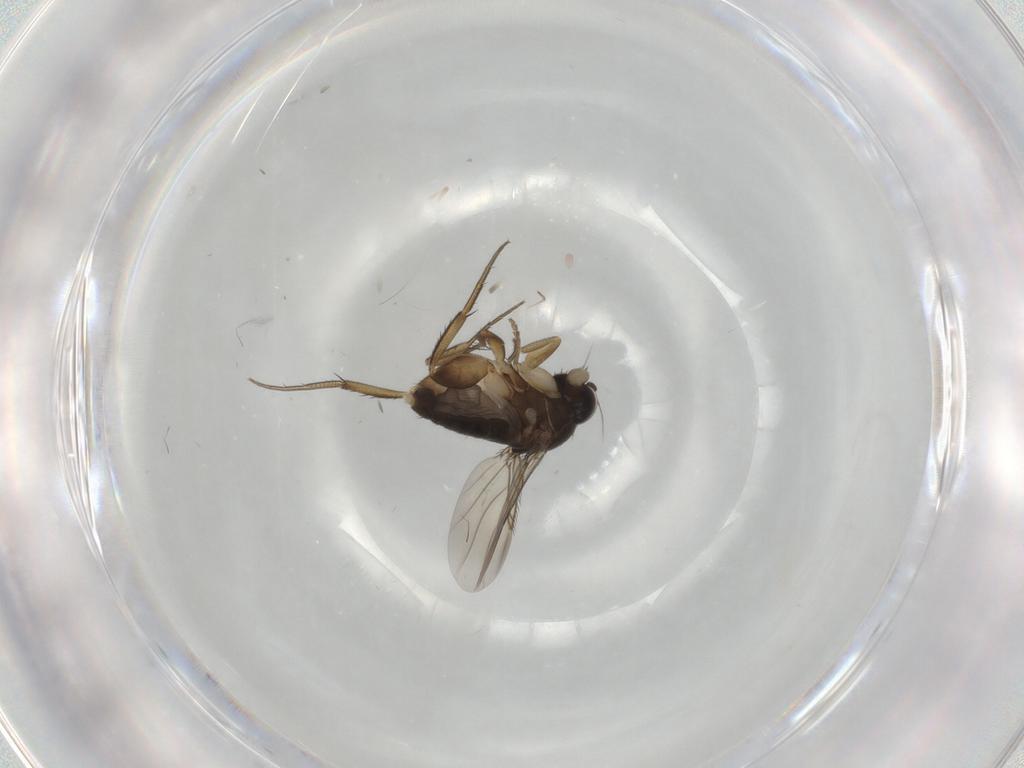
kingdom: Animalia
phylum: Arthropoda
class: Insecta
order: Diptera
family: Phoridae
